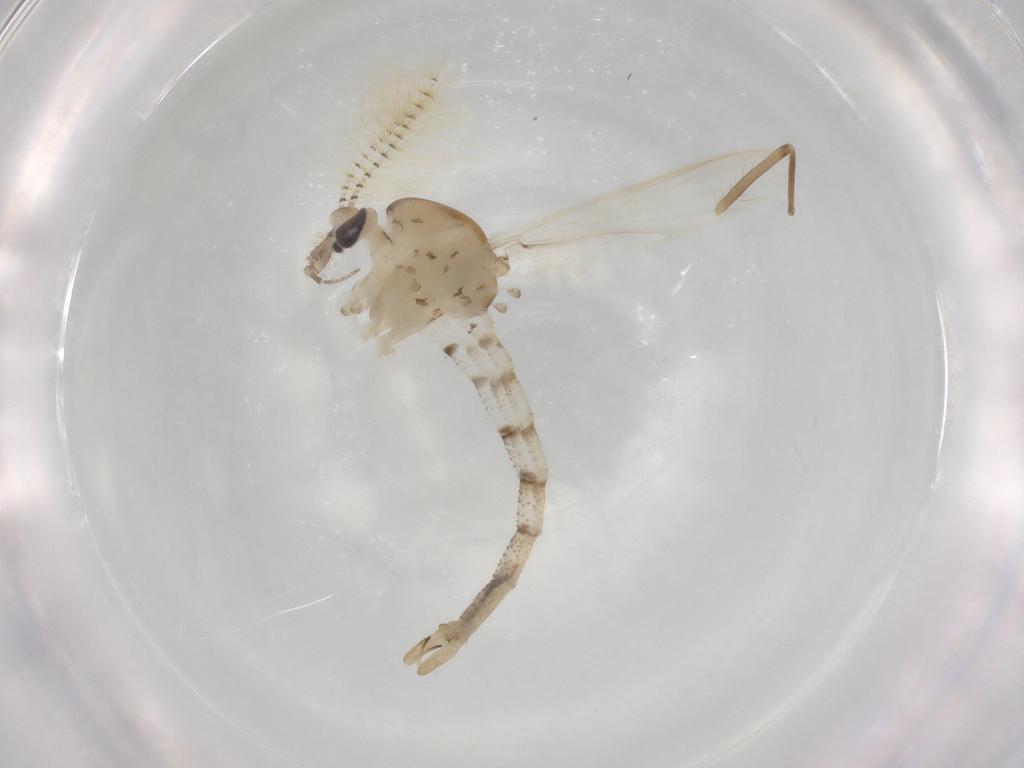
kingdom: Animalia
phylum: Arthropoda
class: Insecta
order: Diptera
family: Chaoboridae
